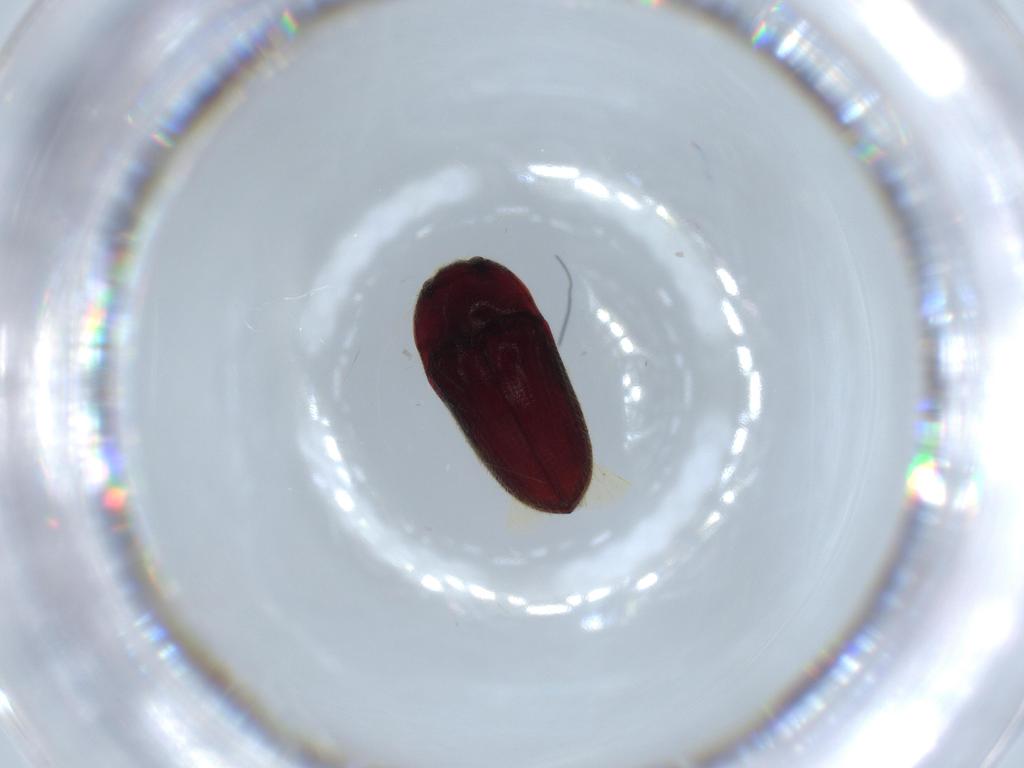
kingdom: Animalia
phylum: Arthropoda
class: Insecta
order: Coleoptera
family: Throscidae
